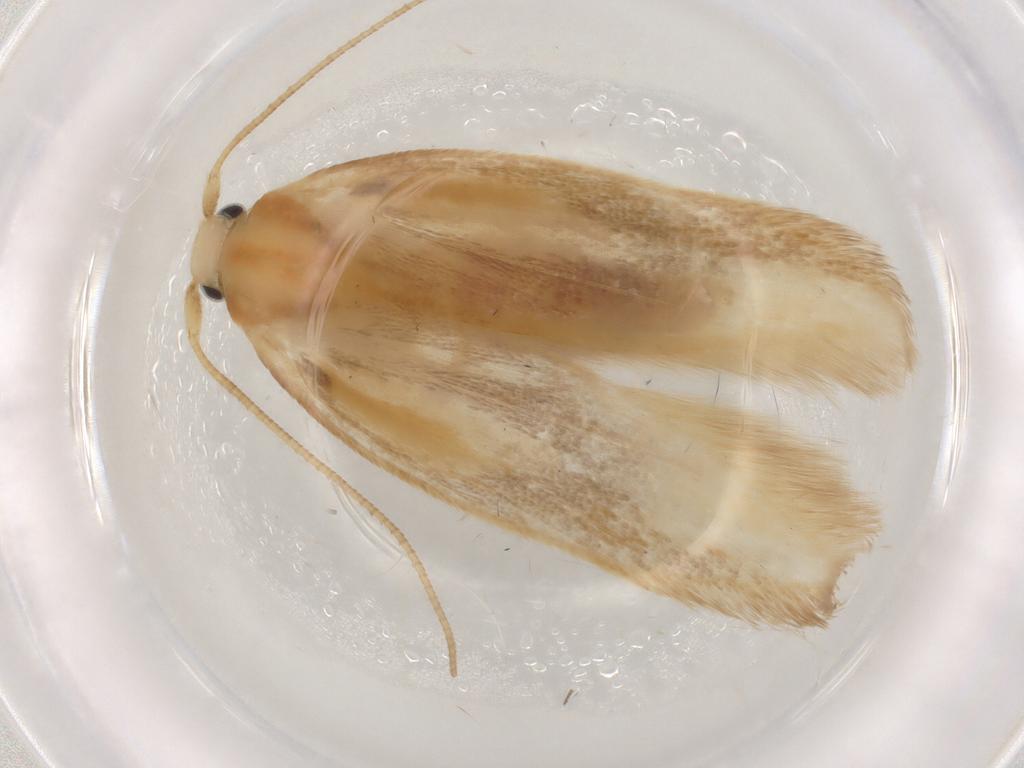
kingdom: Animalia
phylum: Arthropoda
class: Insecta
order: Lepidoptera
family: Geometridae
